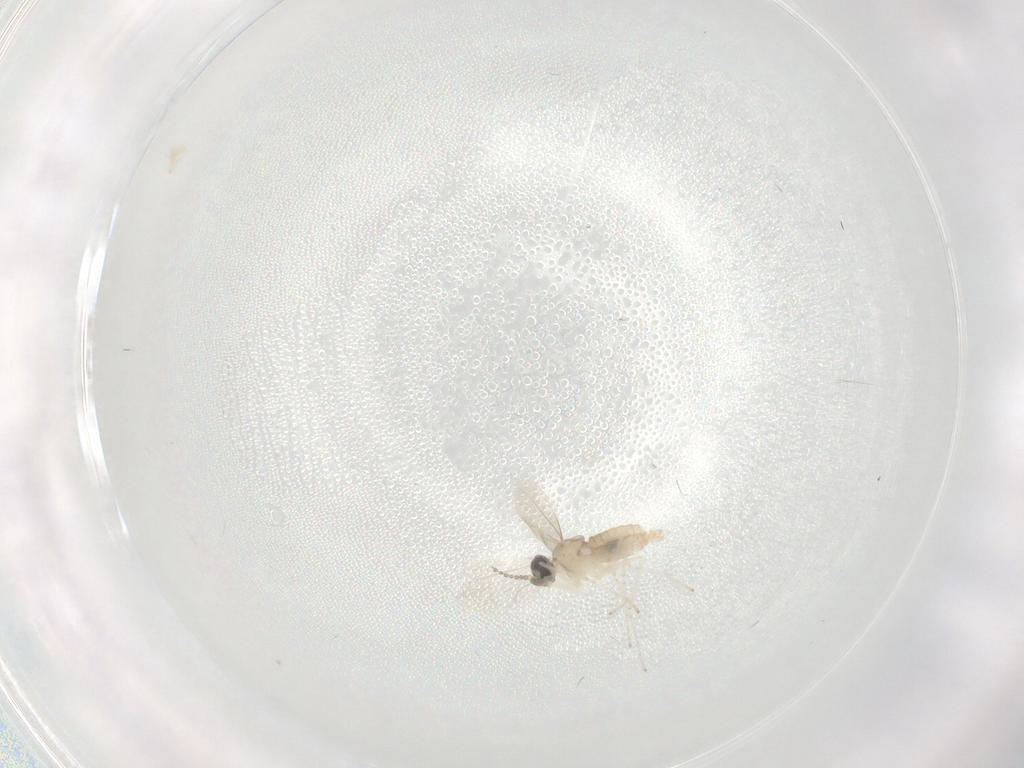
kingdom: Animalia
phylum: Arthropoda
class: Insecta
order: Diptera
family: Cecidomyiidae
